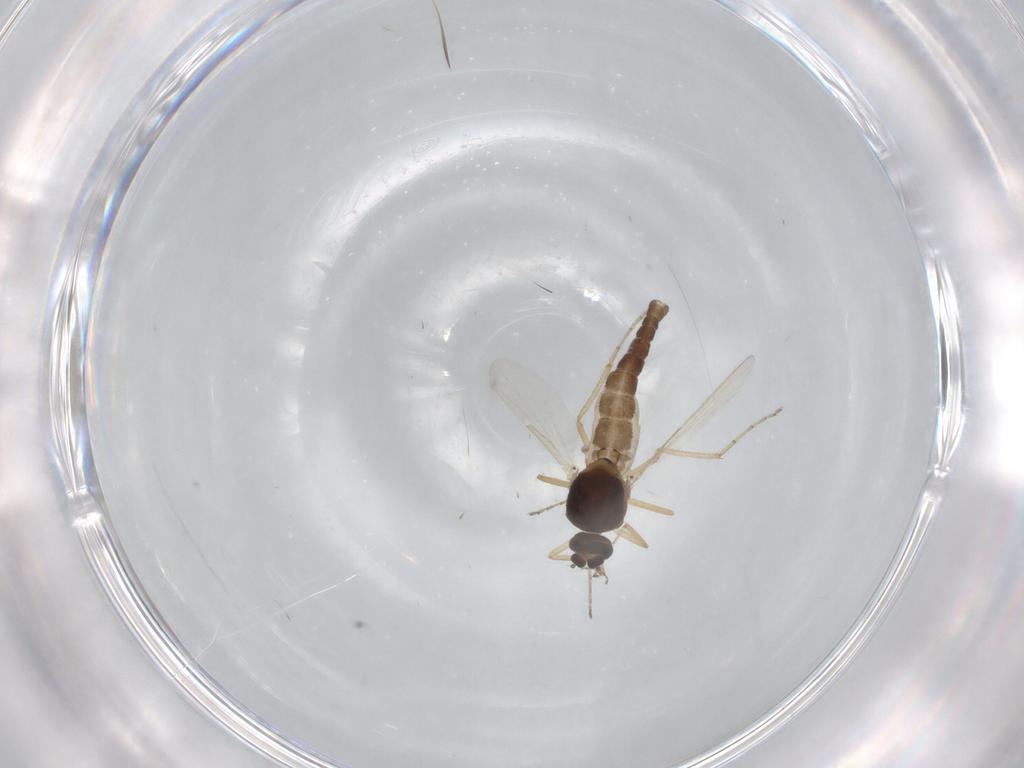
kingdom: Animalia
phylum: Arthropoda
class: Insecta
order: Diptera
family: Ceratopogonidae
